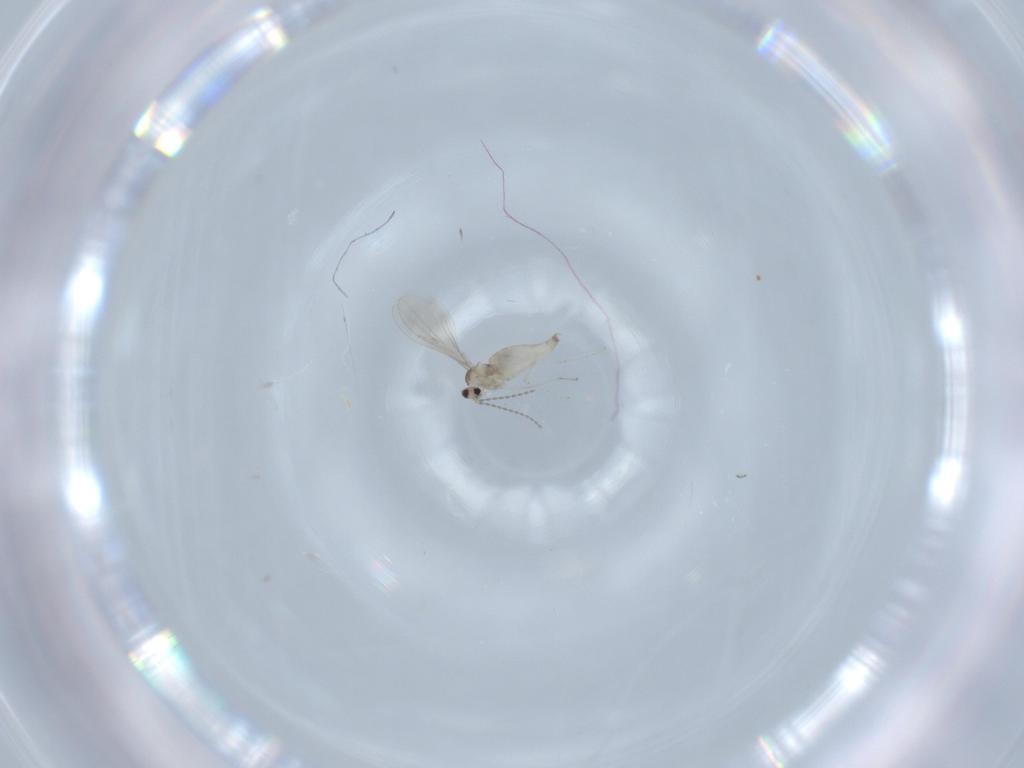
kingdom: Animalia
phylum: Arthropoda
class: Insecta
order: Diptera
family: Cecidomyiidae
